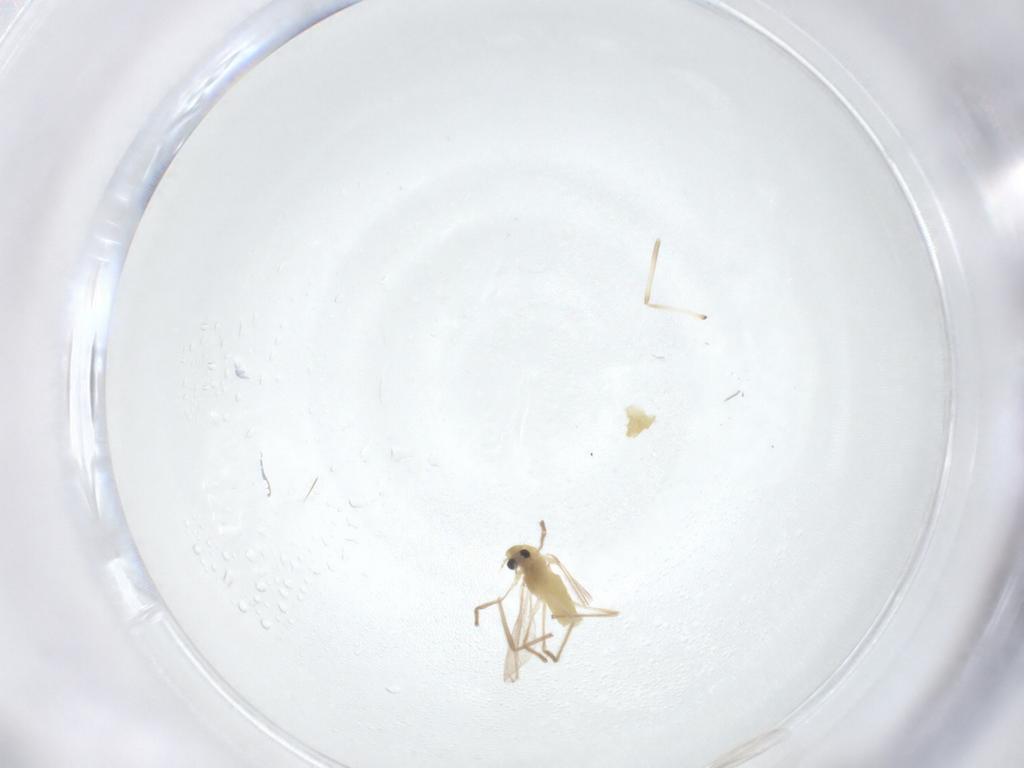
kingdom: Animalia
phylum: Arthropoda
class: Insecta
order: Diptera
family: Chironomidae
